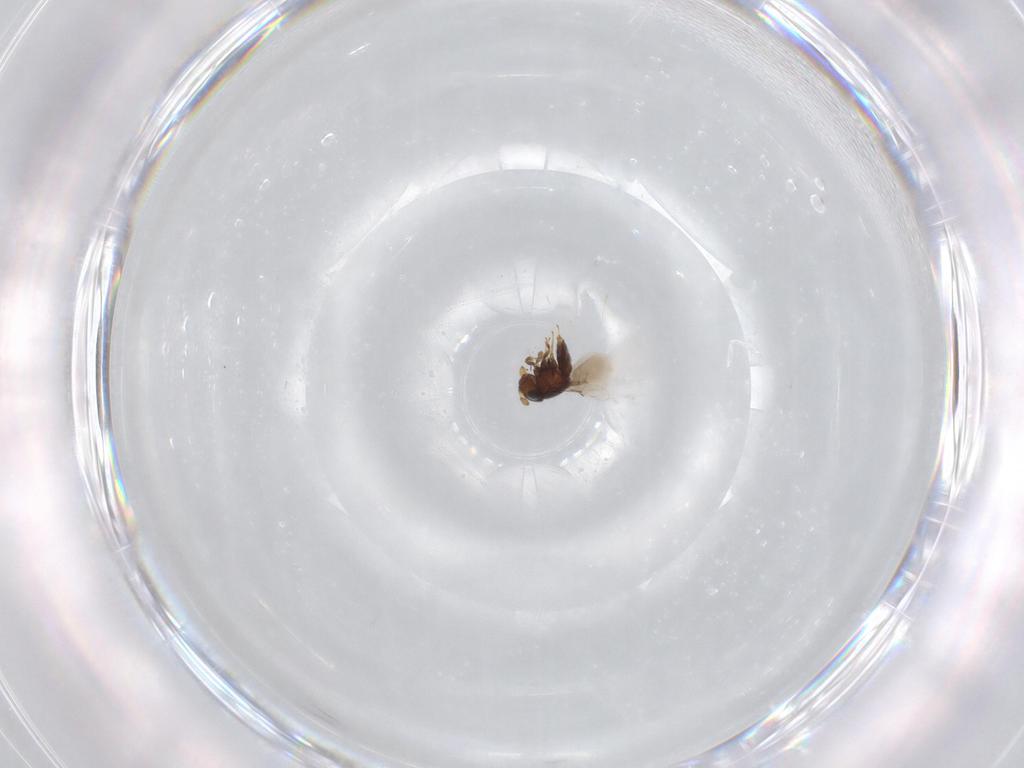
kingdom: Animalia
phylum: Arthropoda
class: Insecta
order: Hymenoptera
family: Scelionidae
